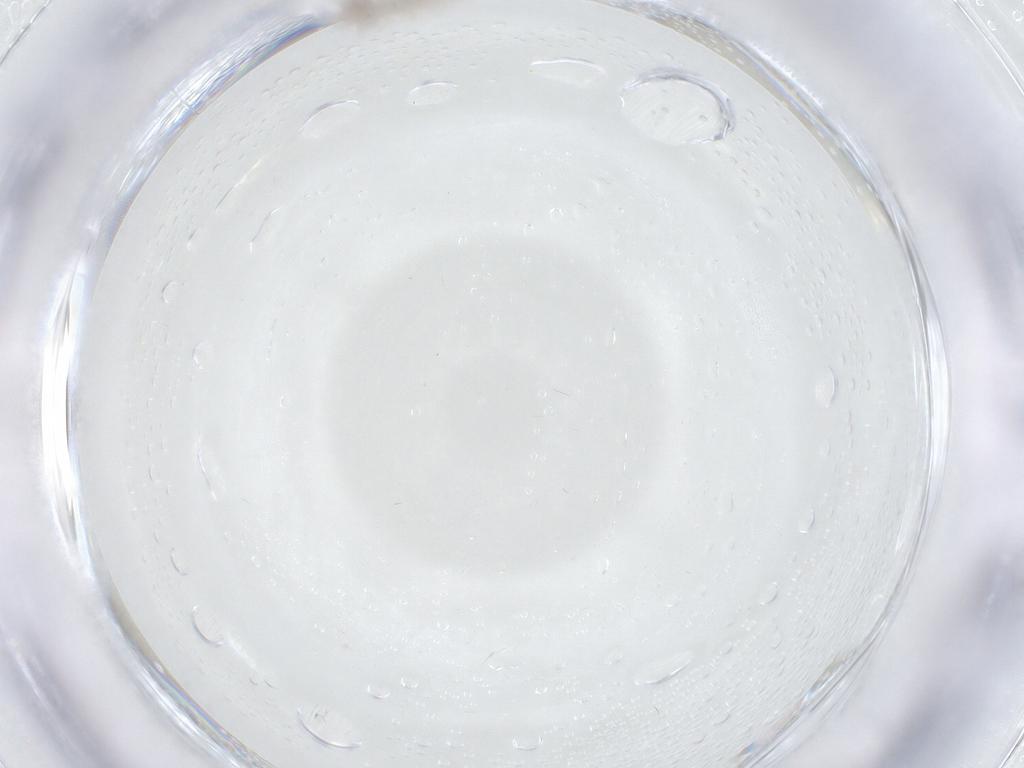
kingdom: Animalia
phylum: Arthropoda
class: Insecta
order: Diptera
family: Chironomidae
